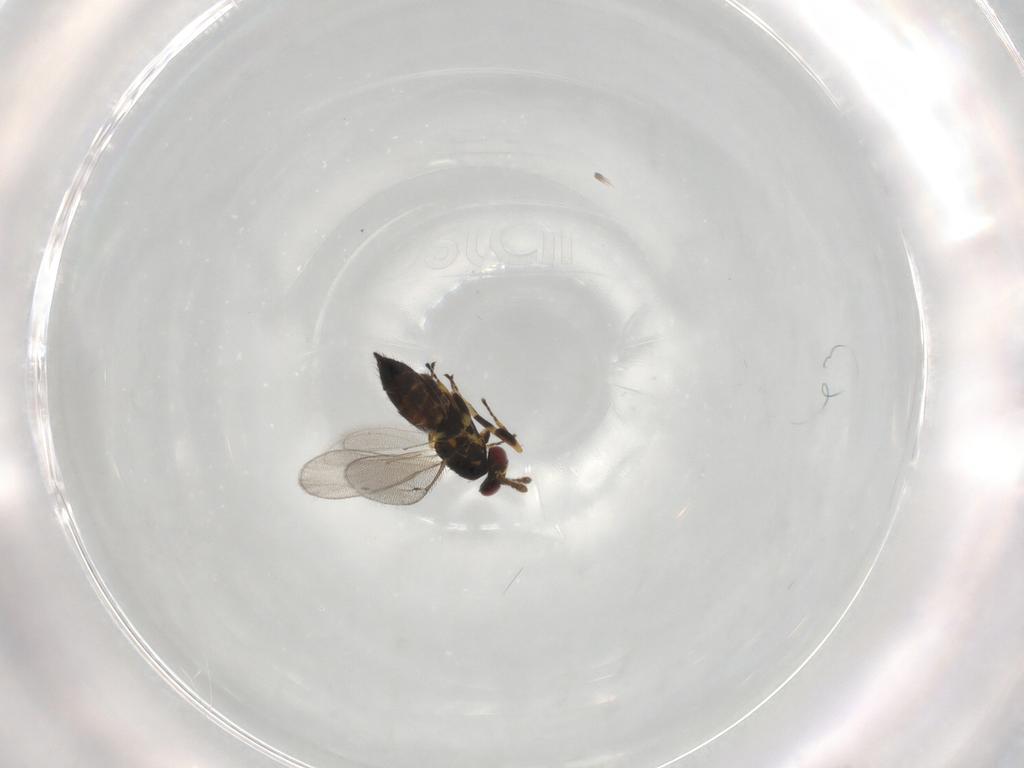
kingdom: Animalia
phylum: Arthropoda
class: Insecta
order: Hymenoptera
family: Eulophidae
